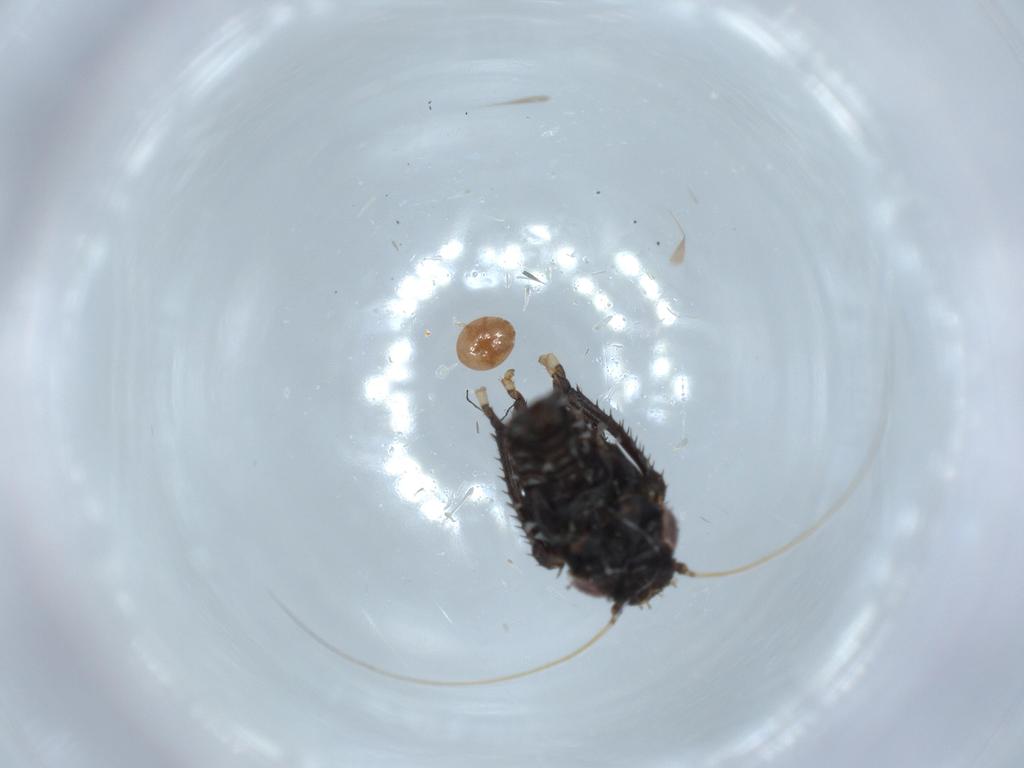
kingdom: Animalia
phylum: Arthropoda
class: Insecta
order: Hemiptera
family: Cicadellidae
